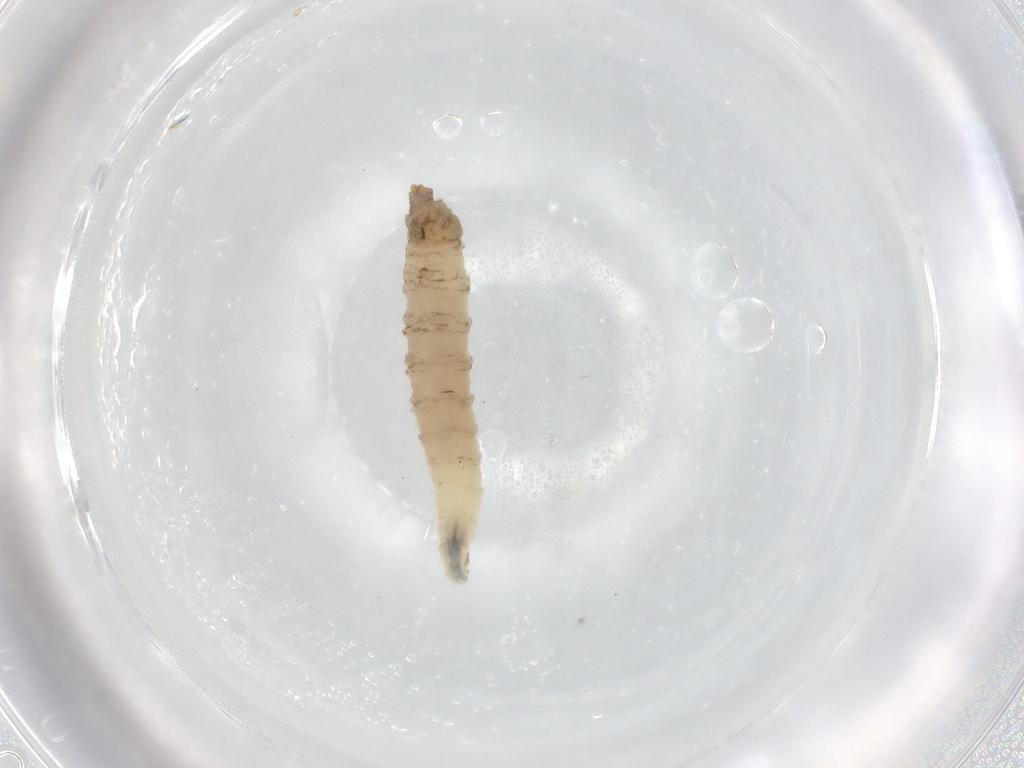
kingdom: Animalia
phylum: Arthropoda
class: Insecta
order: Diptera
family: Drosophilidae
